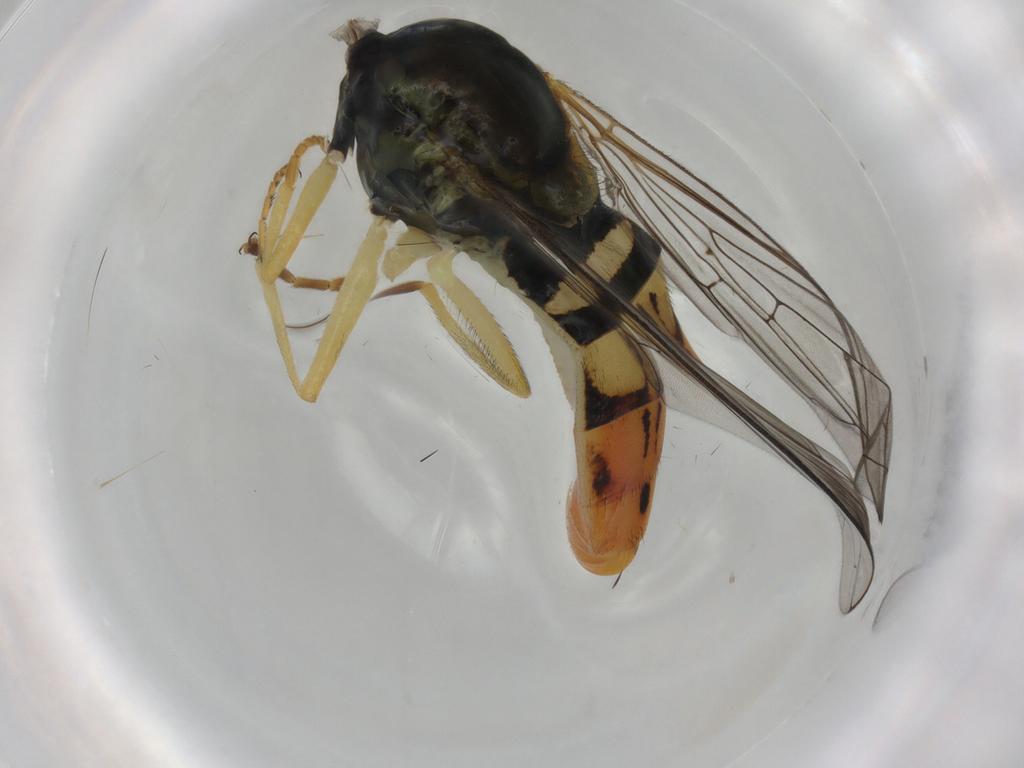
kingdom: Animalia
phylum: Arthropoda
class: Insecta
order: Diptera
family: Syrphidae
